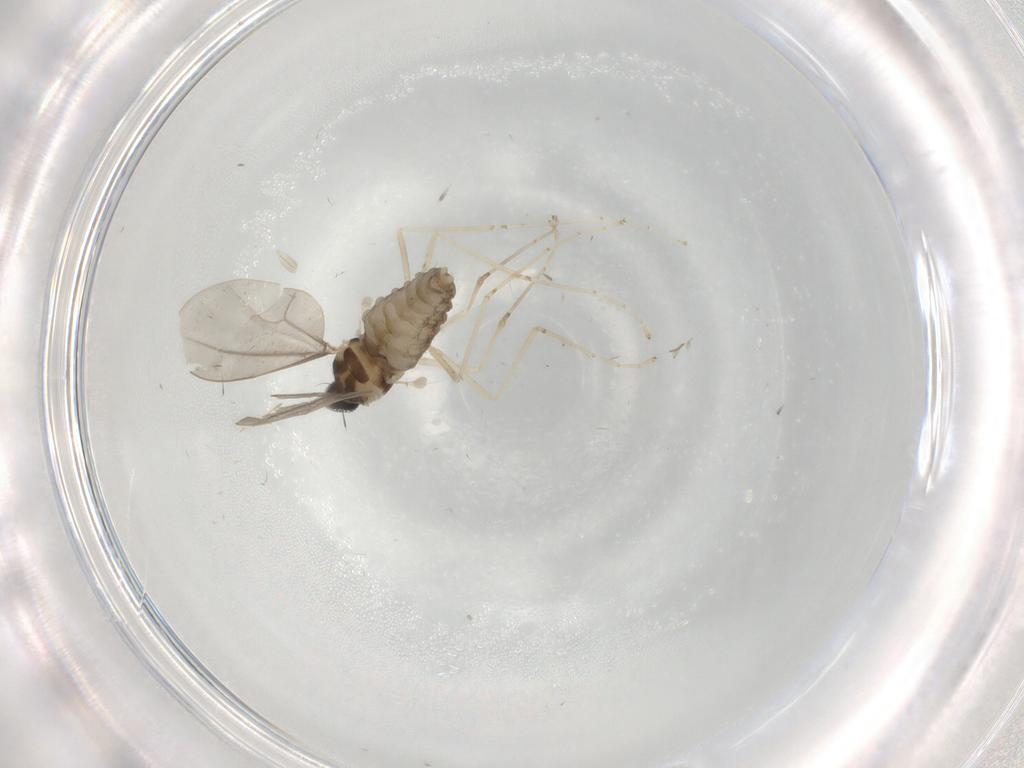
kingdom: Animalia
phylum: Arthropoda
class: Insecta
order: Diptera
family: Cecidomyiidae
